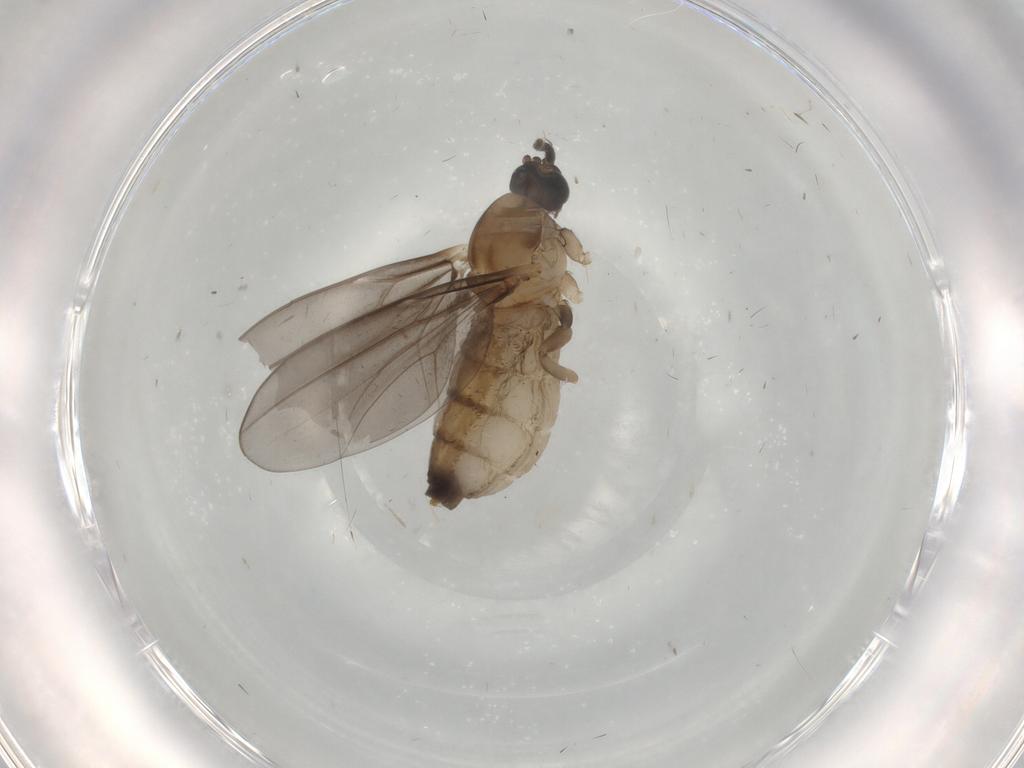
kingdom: Animalia
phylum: Arthropoda
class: Insecta
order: Diptera
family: Cecidomyiidae
